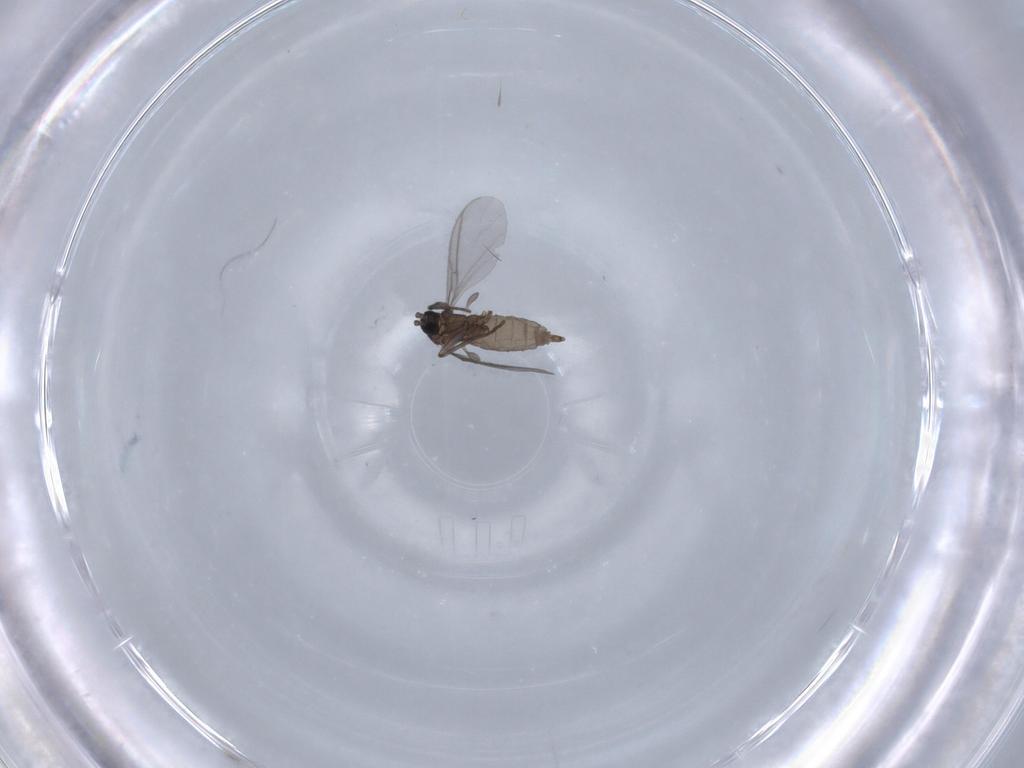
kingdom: Animalia
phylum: Arthropoda
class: Insecta
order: Diptera
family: Sciaridae
